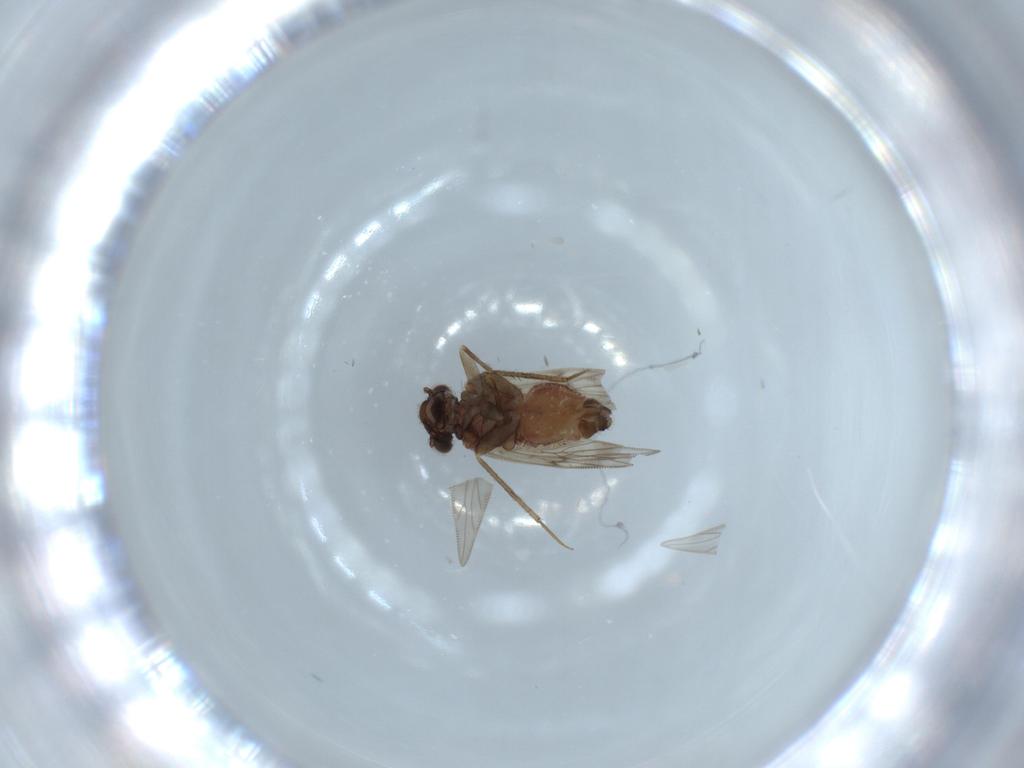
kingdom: Animalia
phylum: Arthropoda
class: Insecta
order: Psocodea
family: Lepidopsocidae
